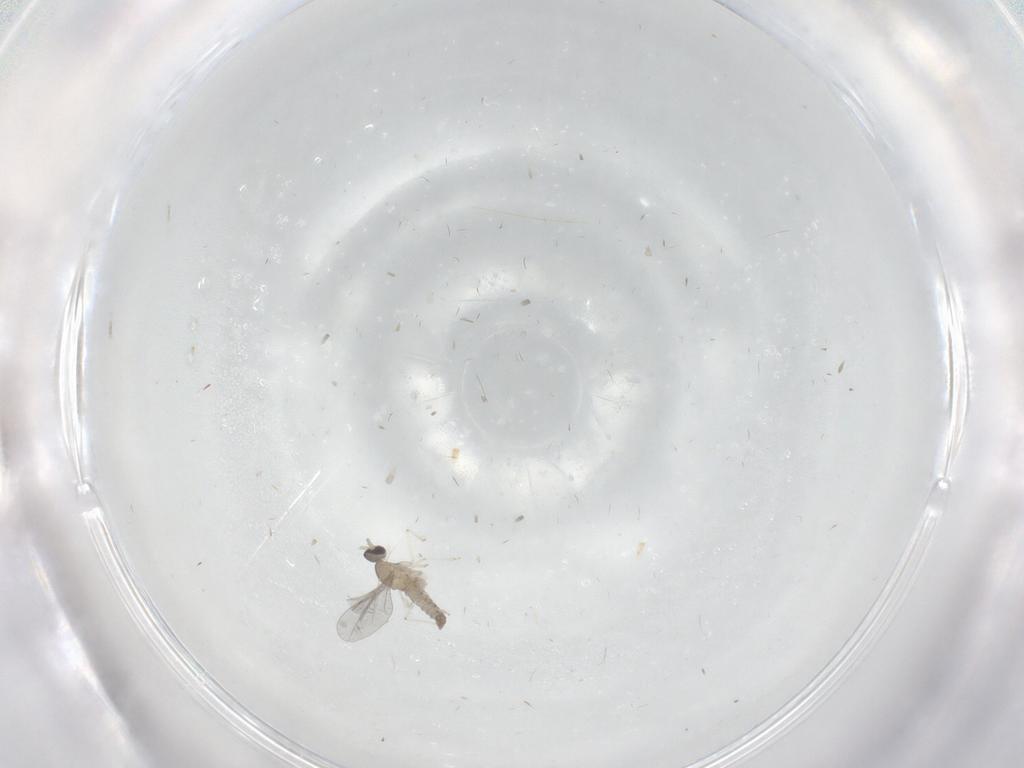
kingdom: Animalia
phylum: Arthropoda
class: Insecta
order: Diptera
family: Cecidomyiidae
